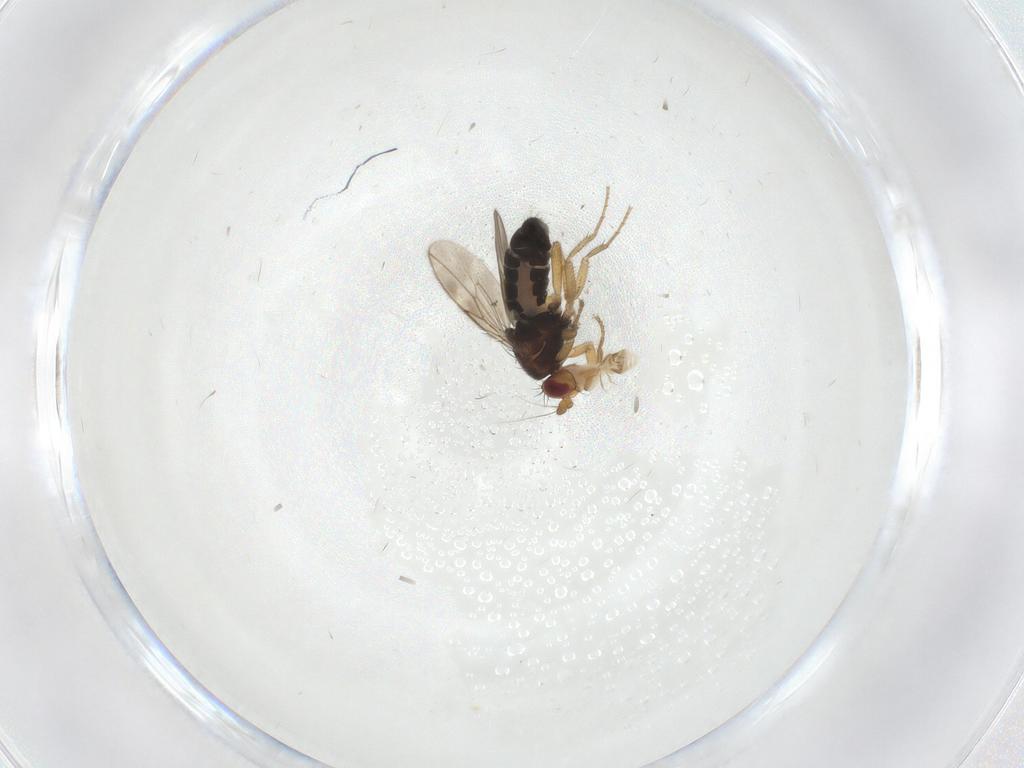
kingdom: Animalia
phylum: Arthropoda
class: Insecta
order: Diptera
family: Sphaeroceridae
